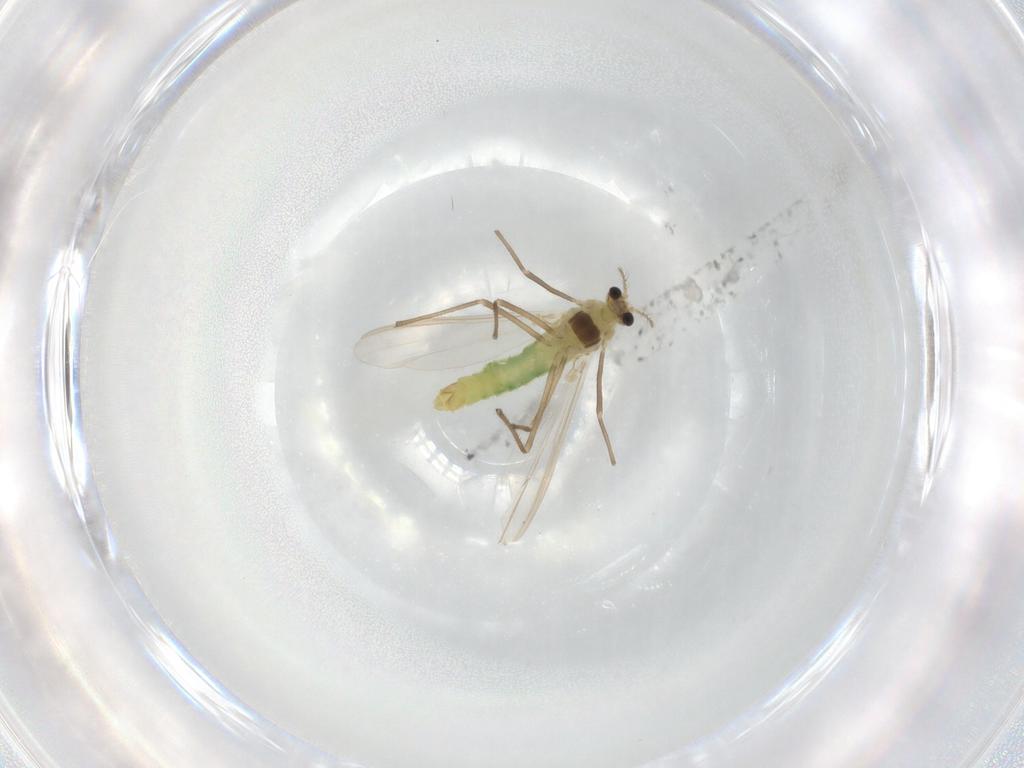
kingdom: Animalia
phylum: Arthropoda
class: Insecta
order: Diptera
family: Chironomidae
